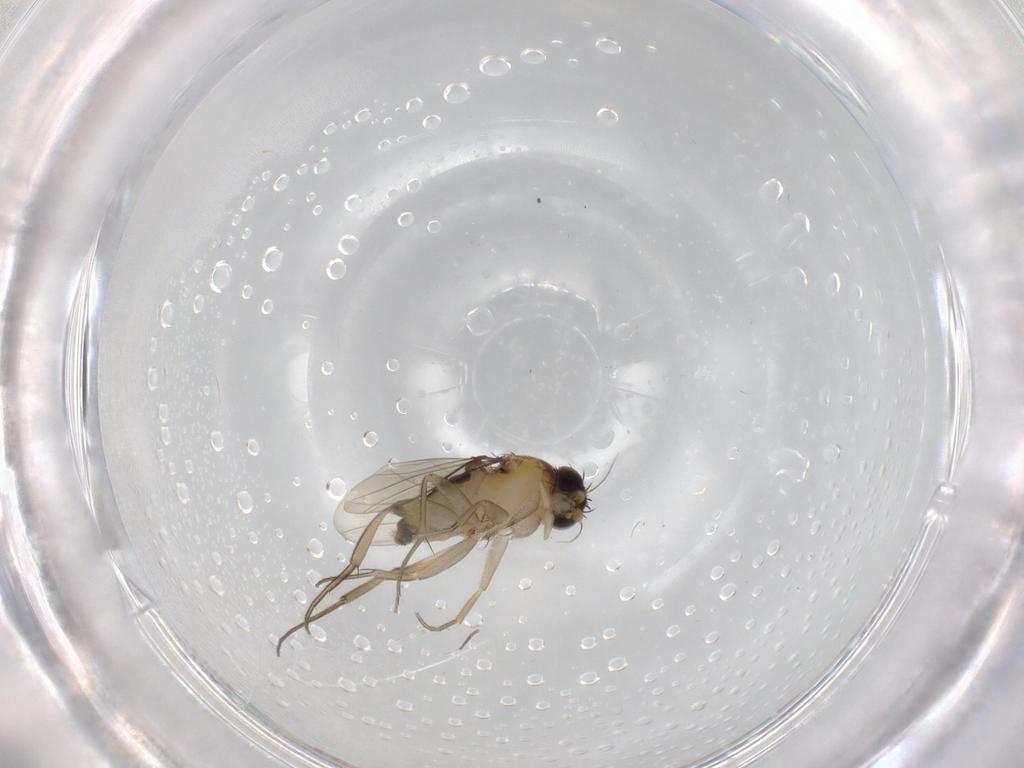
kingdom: Animalia
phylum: Arthropoda
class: Insecta
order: Diptera
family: Phoridae
